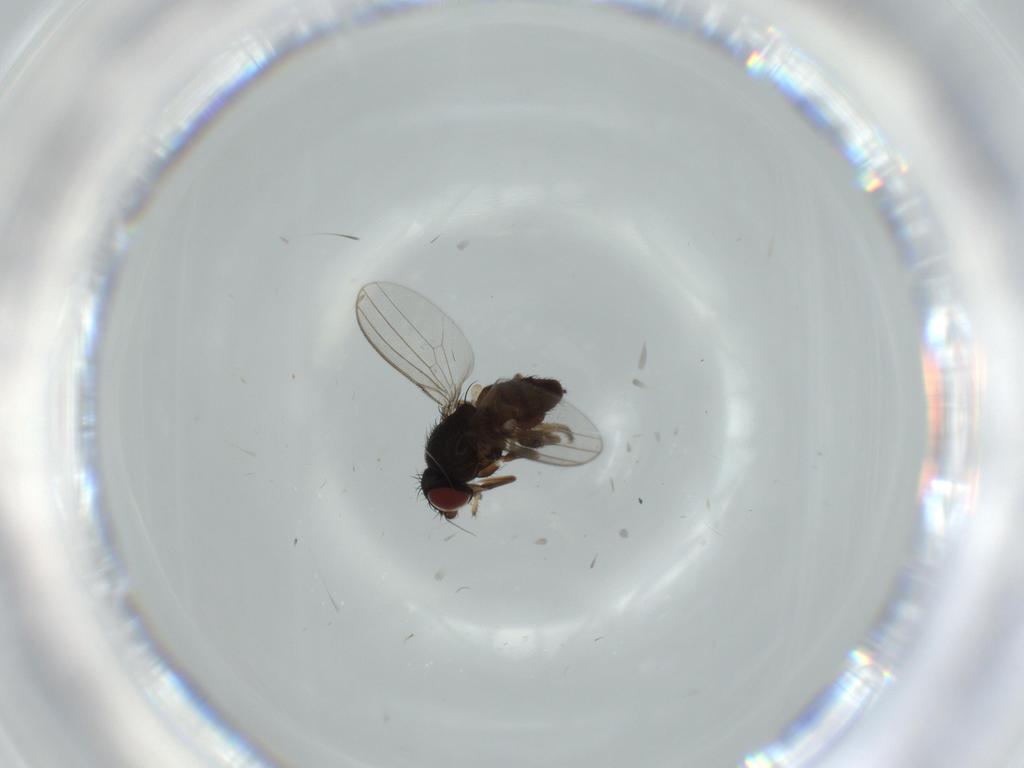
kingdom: Animalia
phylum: Arthropoda
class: Insecta
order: Diptera
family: Milichiidae
